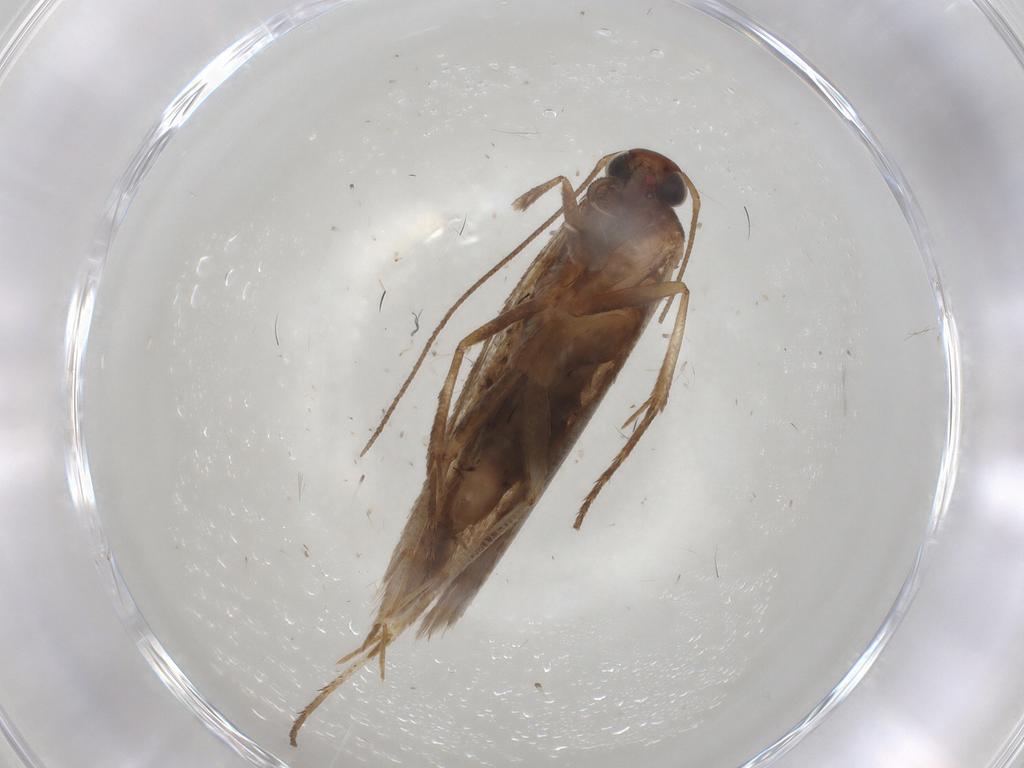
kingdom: Animalia
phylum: Arthropoda
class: Insecta
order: Lepidoptera
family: Gelechiidae
